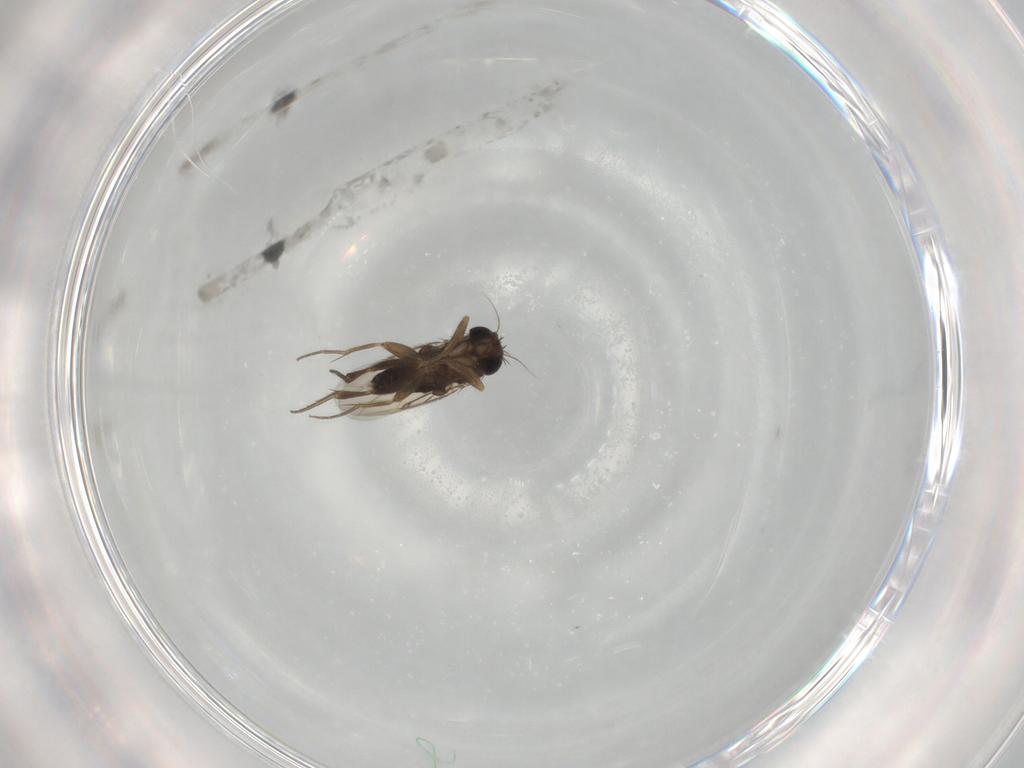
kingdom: Animalia
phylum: Arthropoda
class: Insecta
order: Diptera
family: Phoridae
